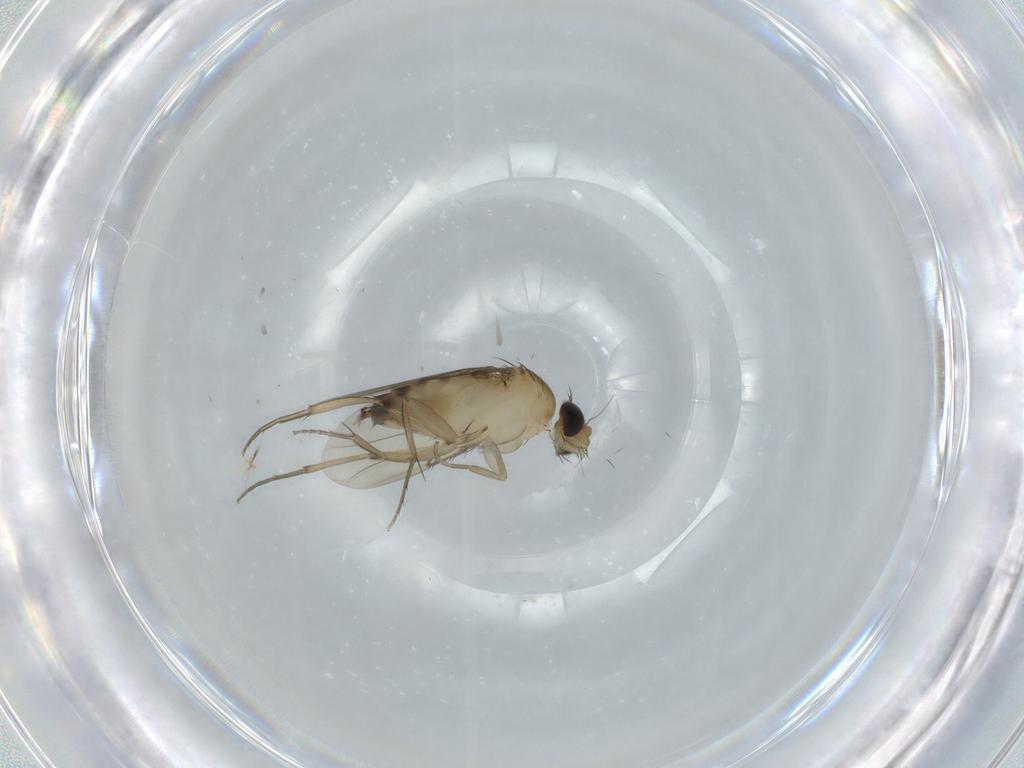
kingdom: Animalia
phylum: Arthropoda
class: Insecta
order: Diptera
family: Phoridae
